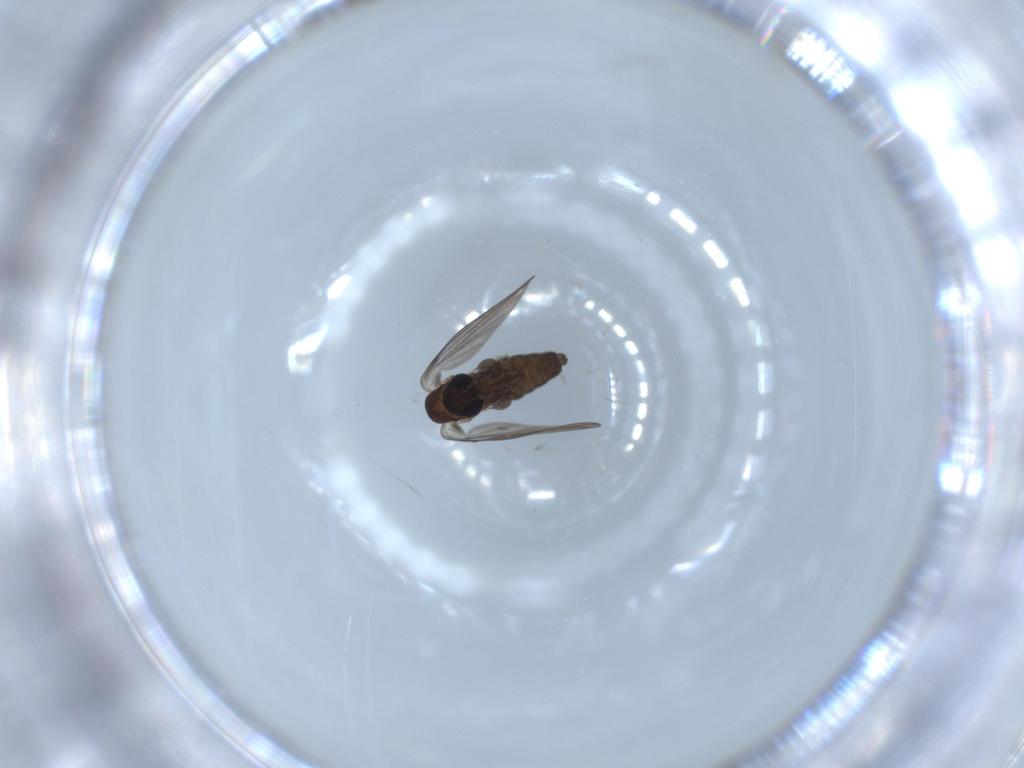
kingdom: Animalia
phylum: Arthropoda
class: Insecta
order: Diptera
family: Psychodidae
